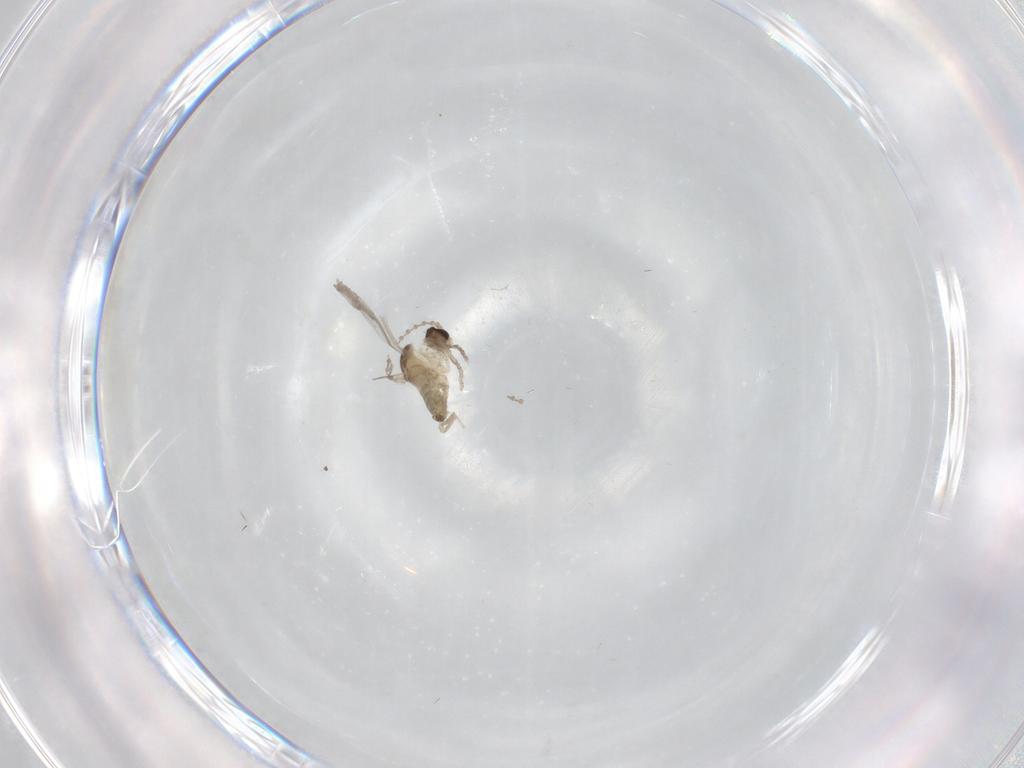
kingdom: Animalia
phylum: Arthropoda
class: Insecta
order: Diptera
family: Cecidomyiidae
